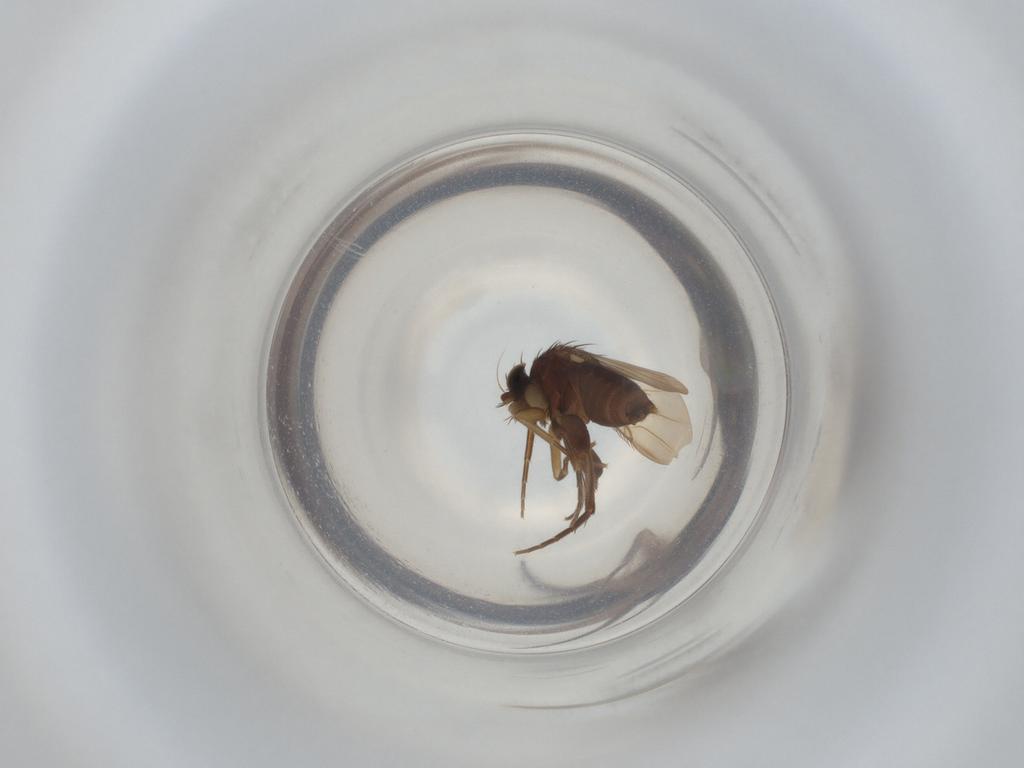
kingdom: Animalia
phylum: Arthropoda
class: Insecta
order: Diptera
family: Phoridae
